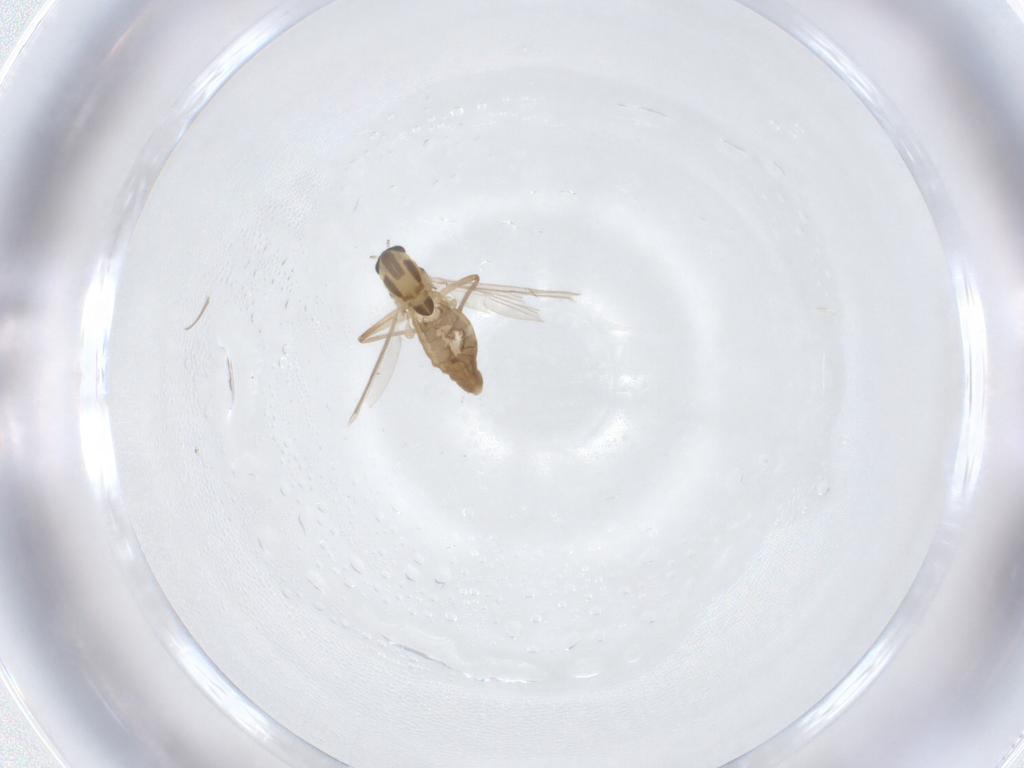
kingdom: Animalia
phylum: Arthropoda
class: Insecta
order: Diptera
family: Chironomidae
